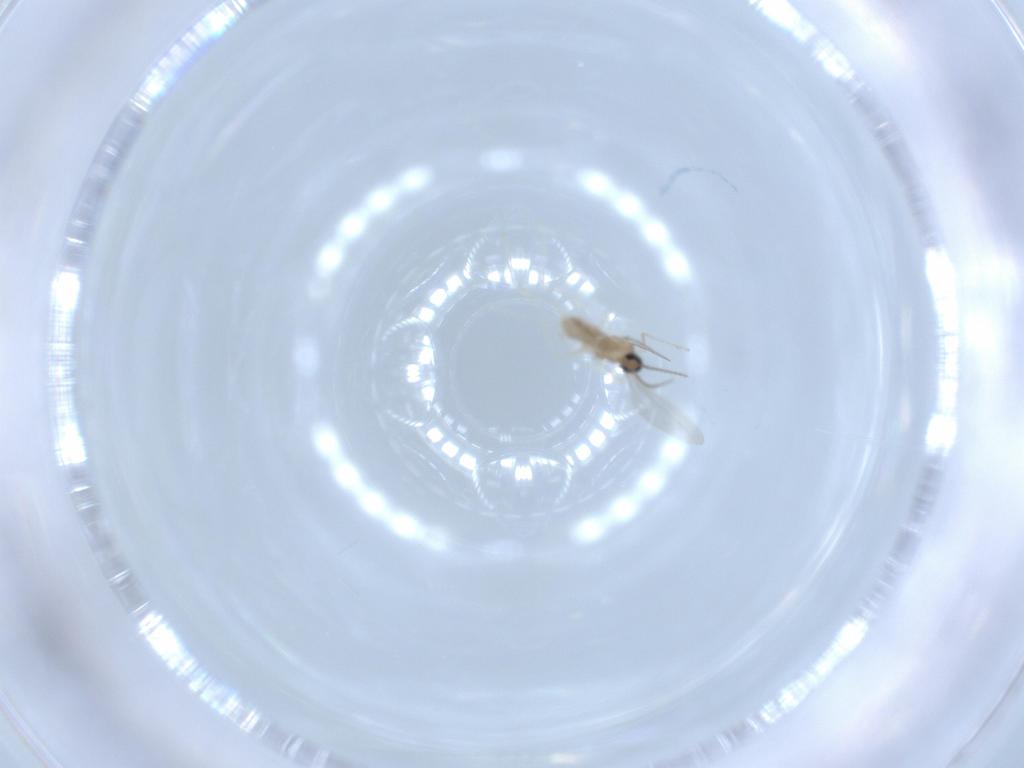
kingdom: Animalia
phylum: Arthropoda
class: Insecta
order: Diptera
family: Cecidomyiidae
